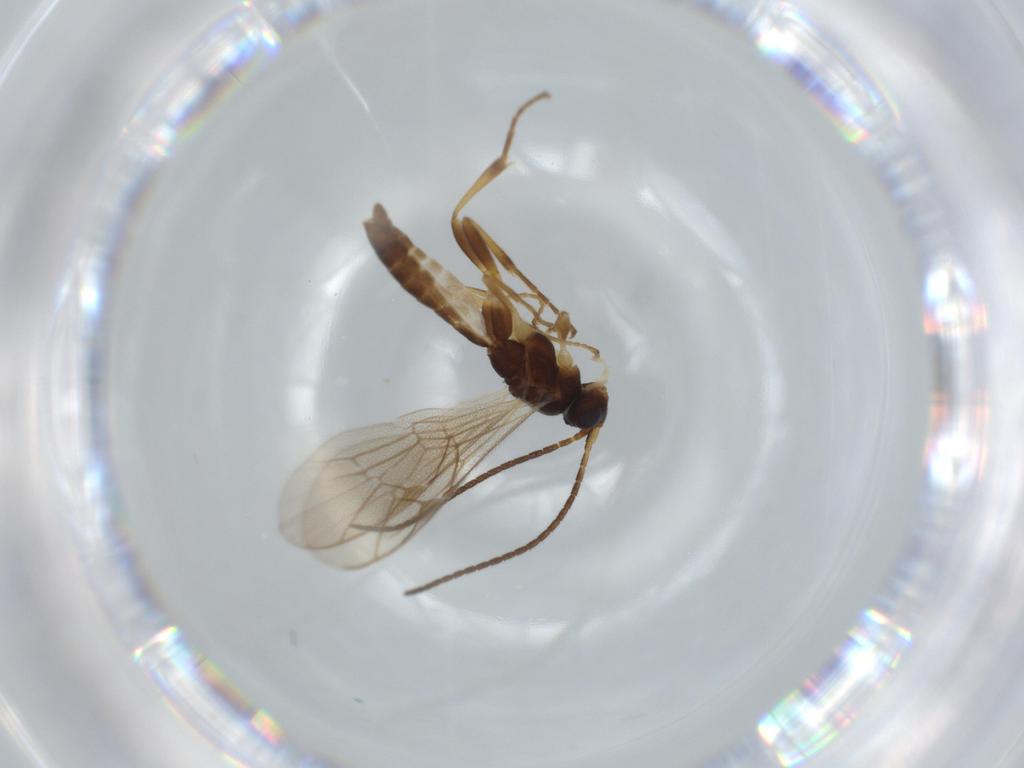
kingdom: Animalia
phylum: Arthropoda
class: Insecta
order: Hymenoptera
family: Ichneumonidae
